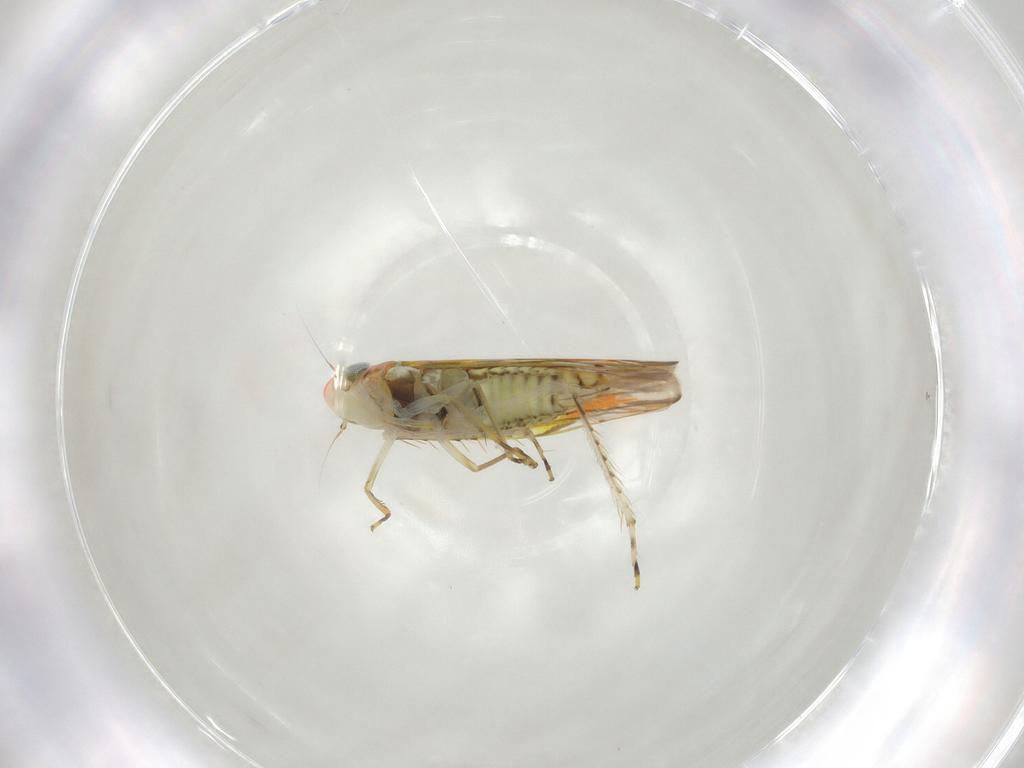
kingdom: Animalia
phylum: Arthropoda
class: Insecta
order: Hemiptera
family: Cicadellidae
